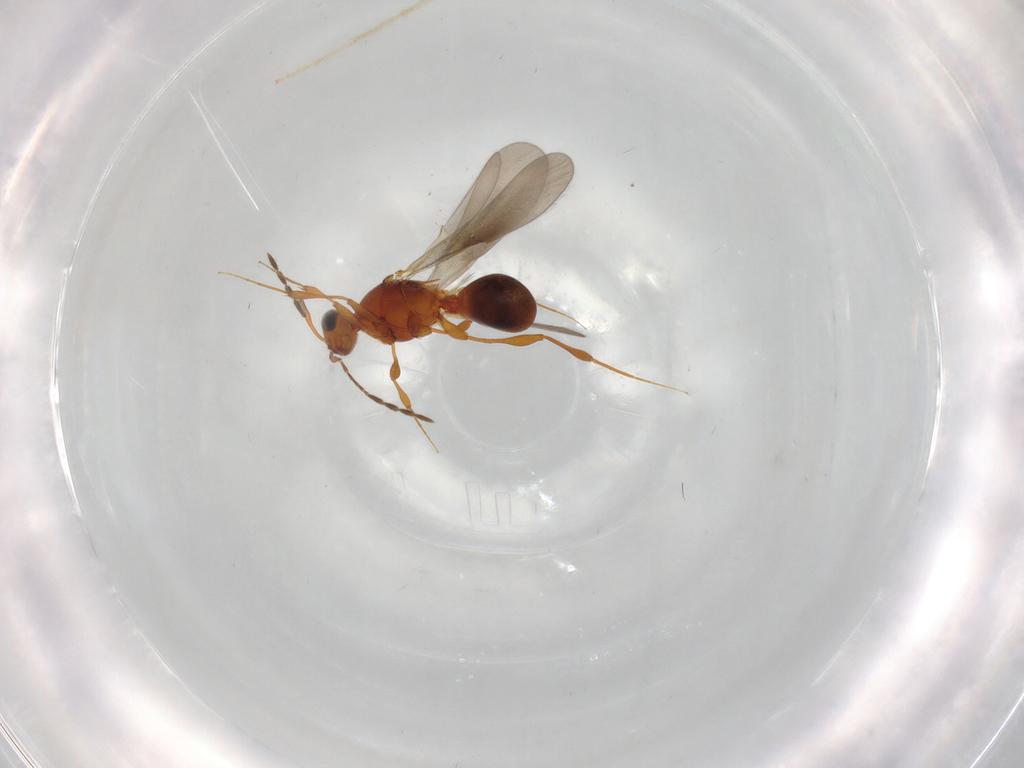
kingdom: Animalia
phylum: Arthropoda
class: Insecta
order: Hymenoptera
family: Platygastridae
